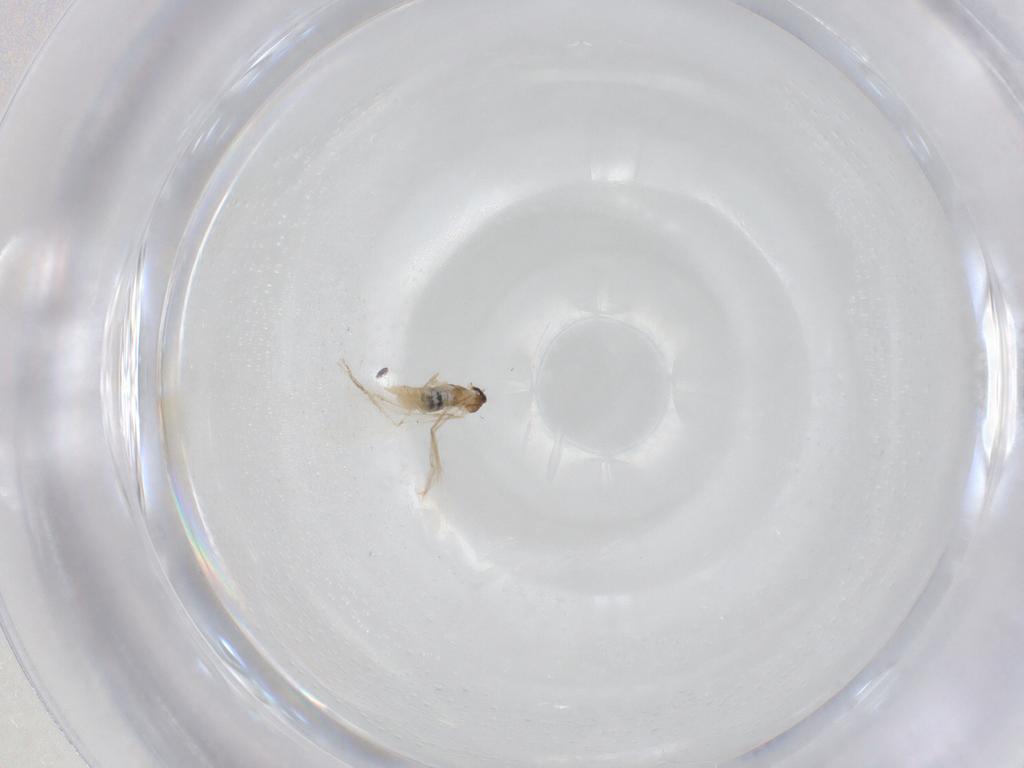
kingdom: Animalia
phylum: Arthropoda
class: Insecta
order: Diptera
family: Cecidomyiidae
